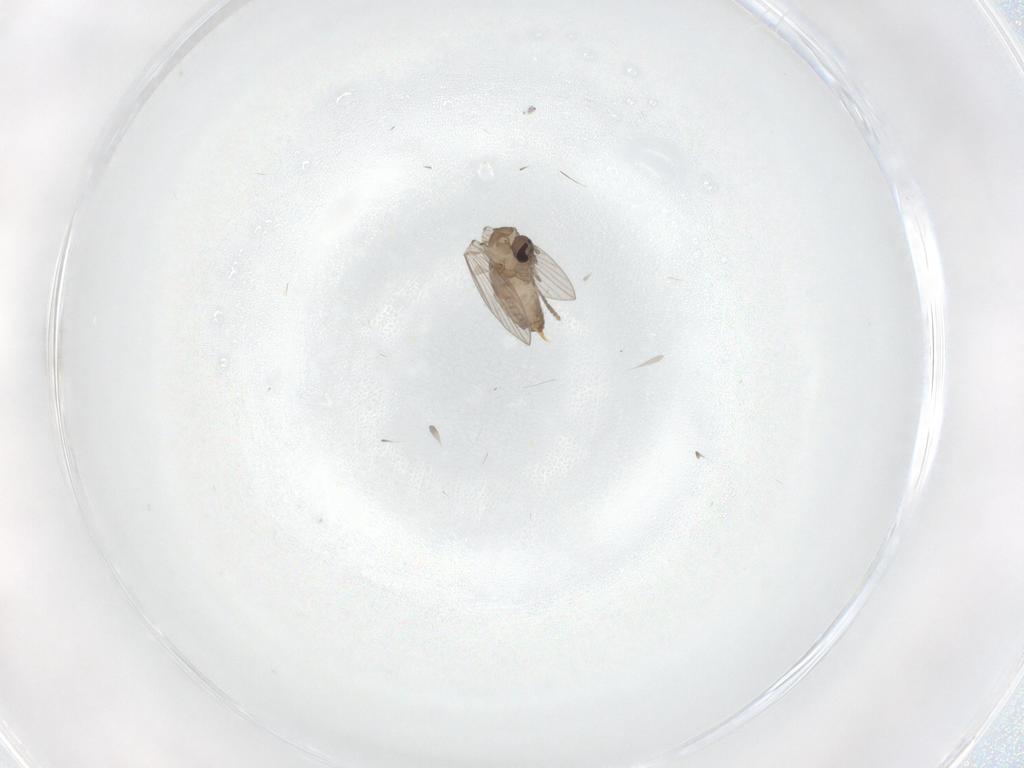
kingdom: Animalia
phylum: Arthropoda
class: Insecta
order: Diptera
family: Psychodidae
